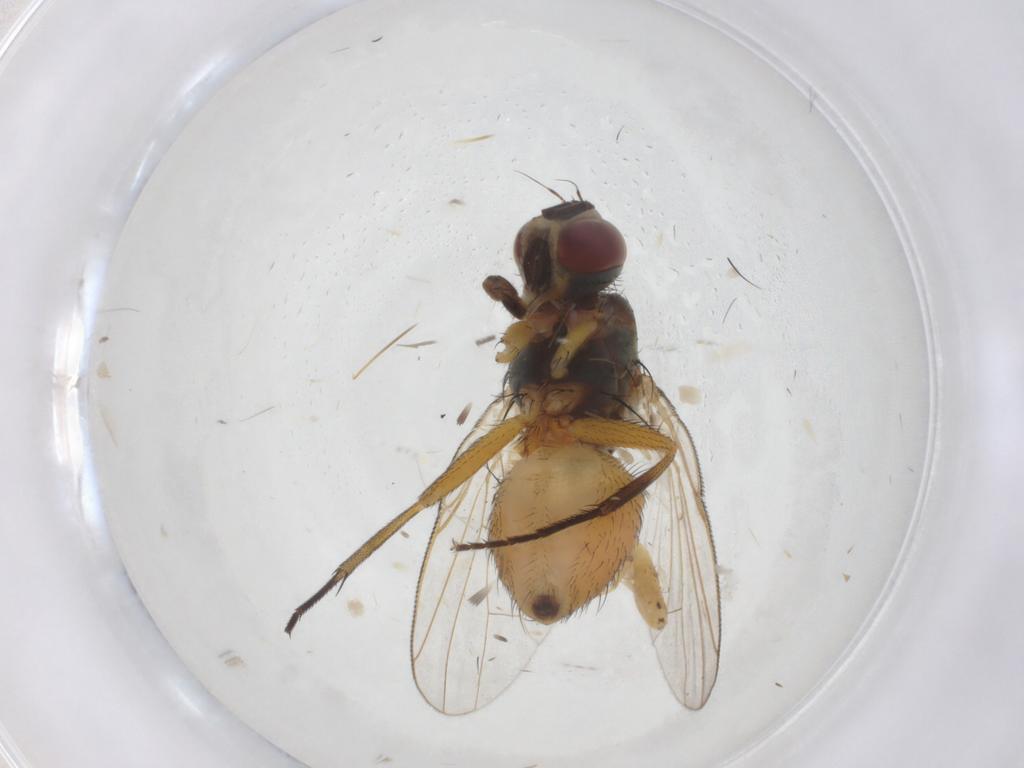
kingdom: Animalia
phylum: Arthropoda
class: Insecta
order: Diptera
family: Muscidae
